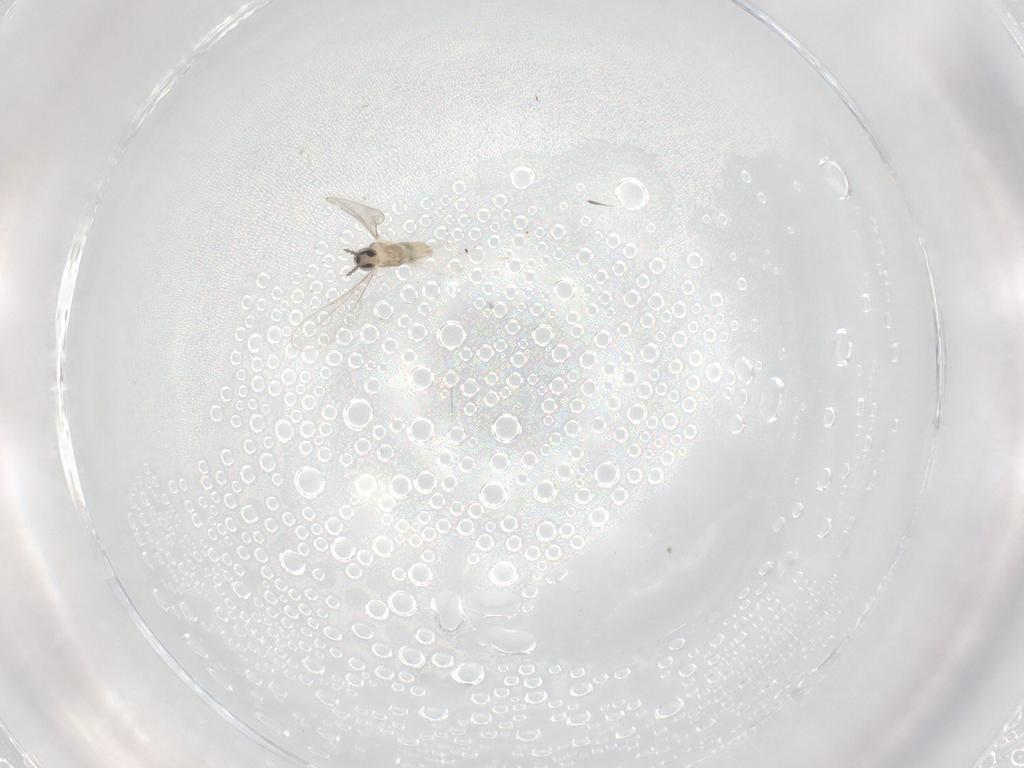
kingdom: Animalia
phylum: Arthropoda
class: Insecta
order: Diptera
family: Cecidomyiidae
